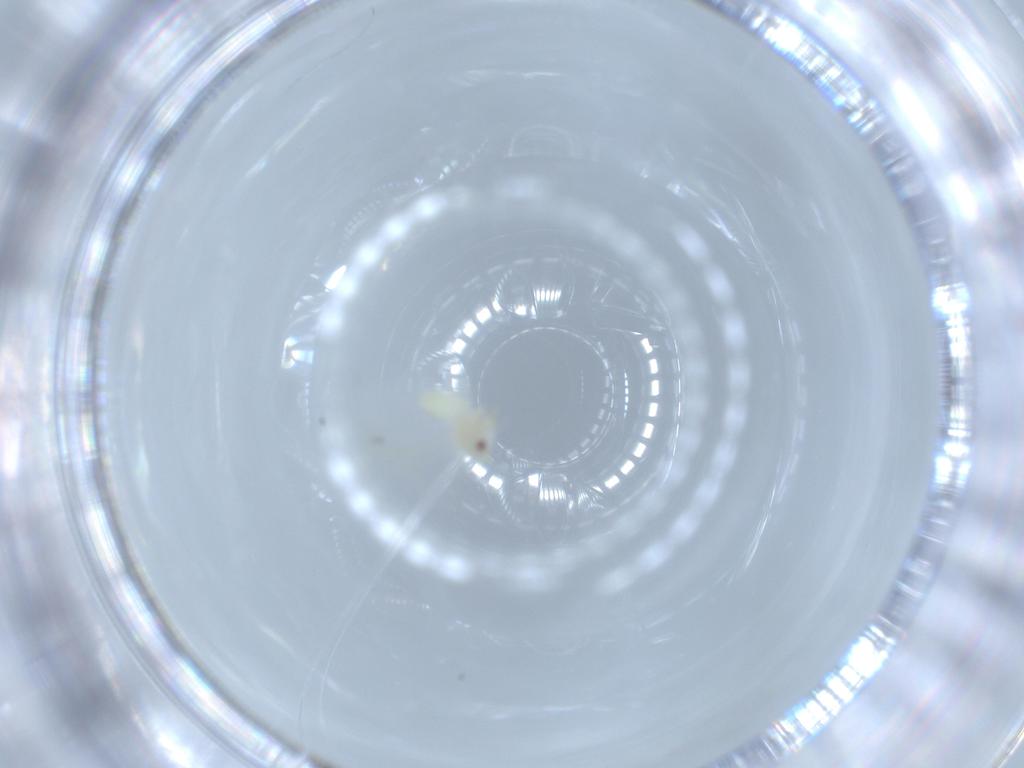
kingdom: Animalia
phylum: Arthropoda
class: Insecta
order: Hemiptera
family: Aleyrodidae
